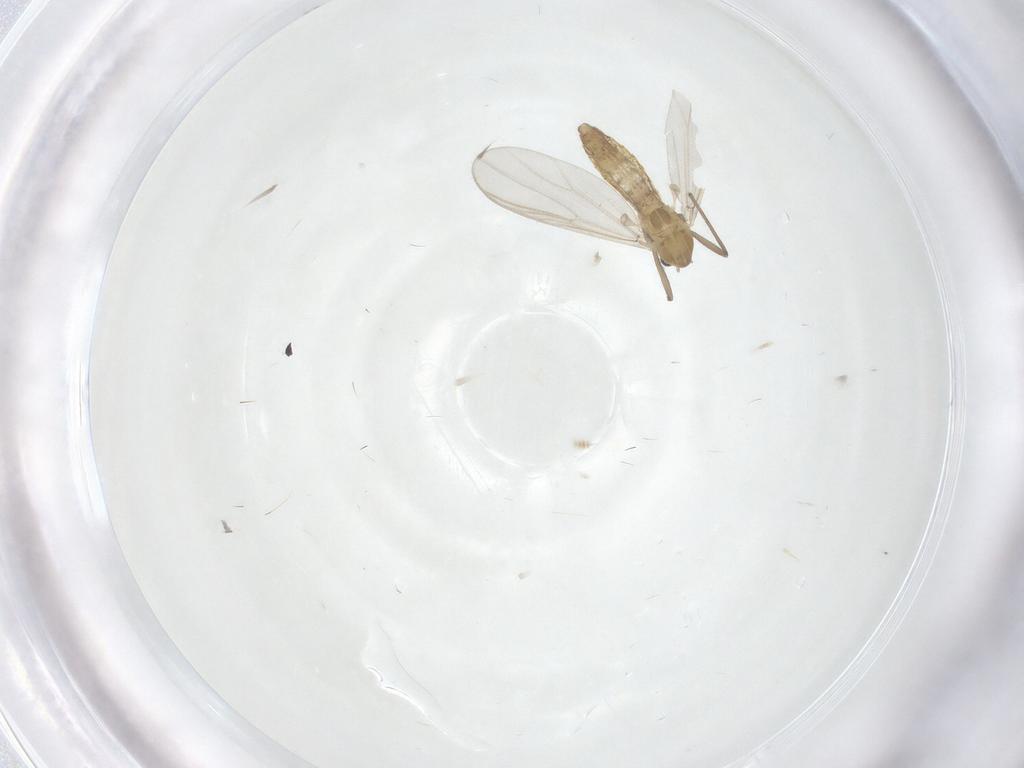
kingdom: Animalia
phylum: Arthropoda
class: Insecta
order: Diptera
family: Chironomidae
